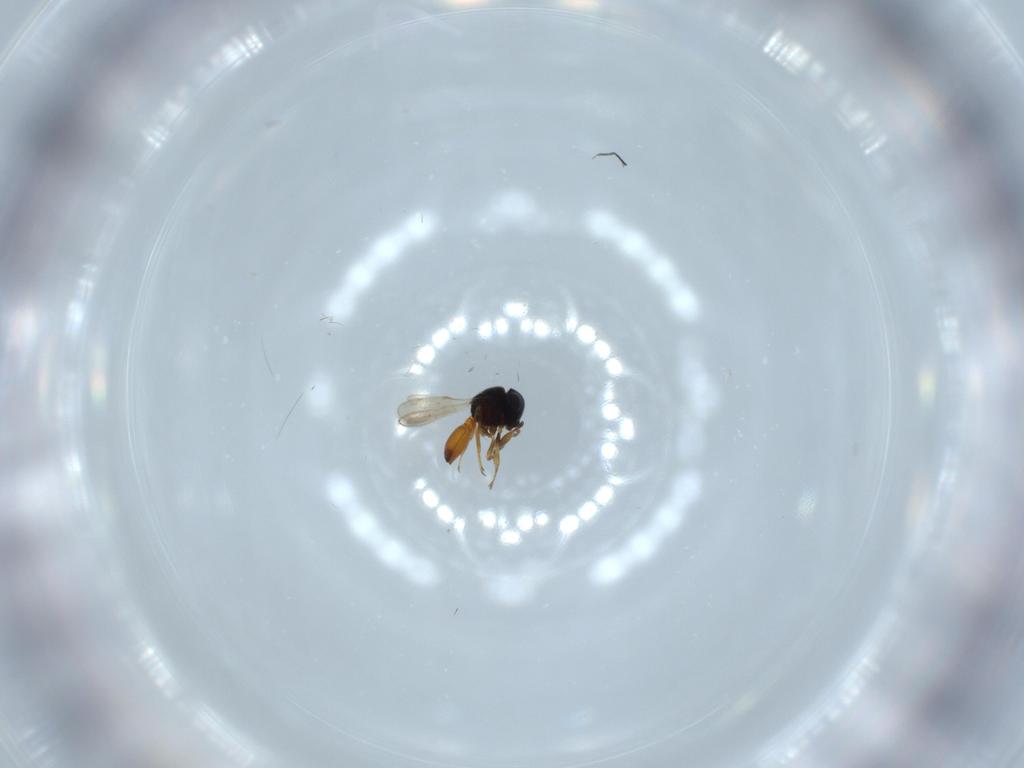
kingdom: Animalia
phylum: Arthropoda
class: Insecta
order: Hymenoptera
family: Scelionidae
